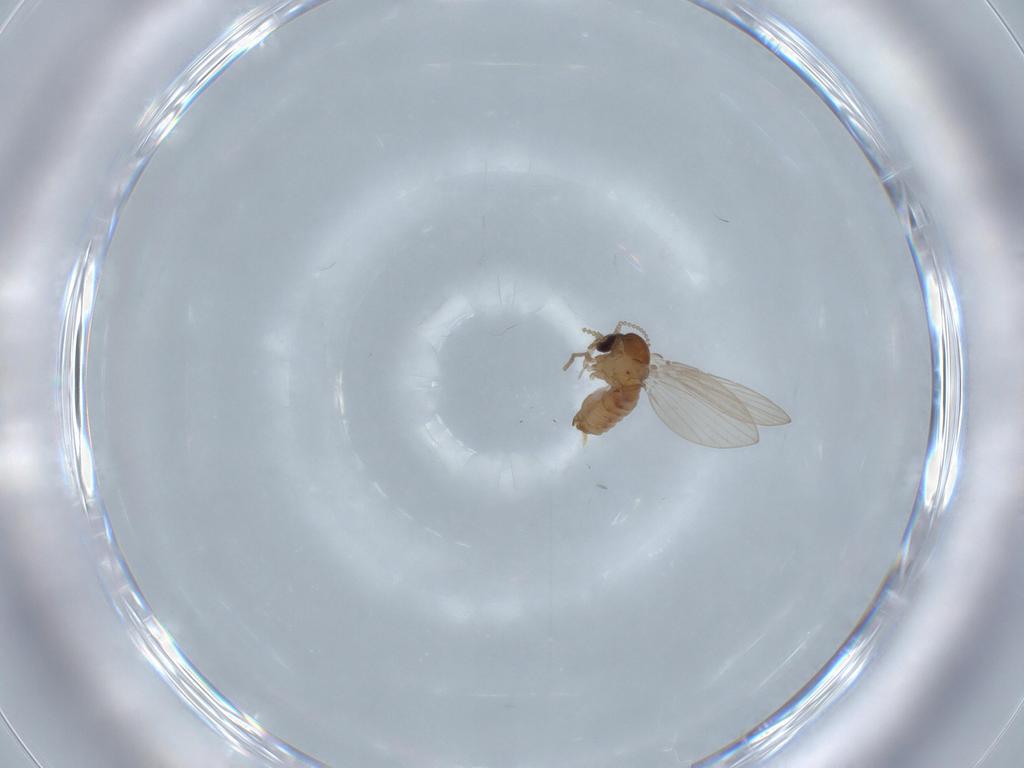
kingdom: Animalia
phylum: Arthropoda
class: Insecta
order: Diptera
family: Psychodidae
